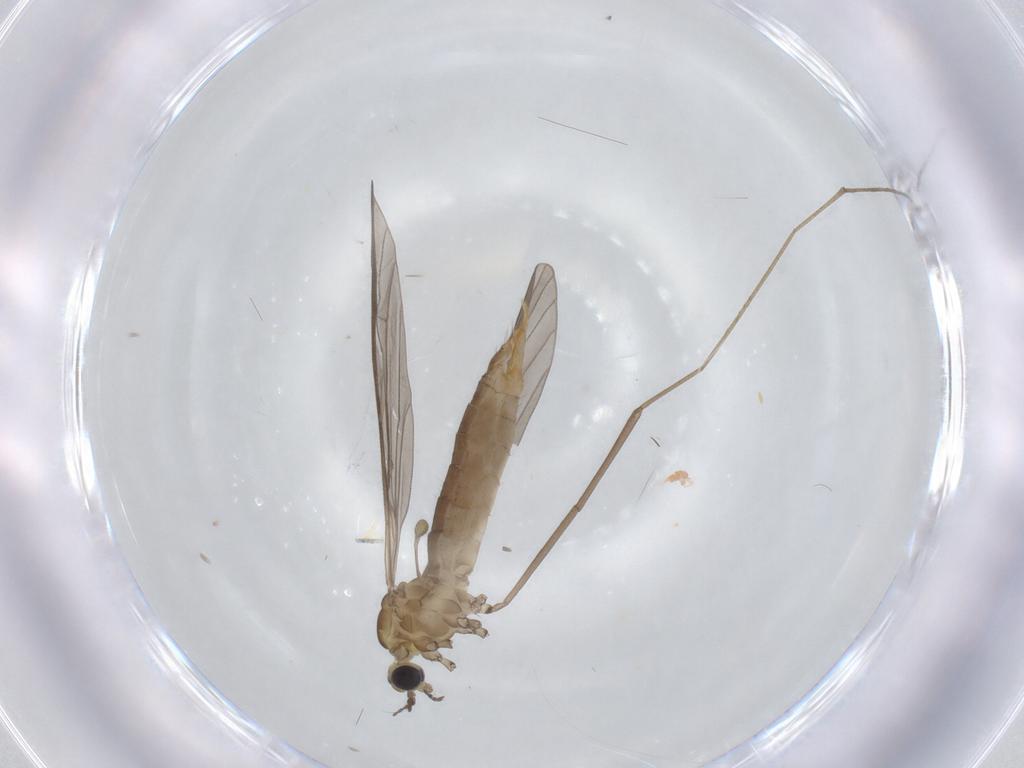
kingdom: Animalia
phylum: Arthropoda
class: Insecta
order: Diptera
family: Limoniidae
